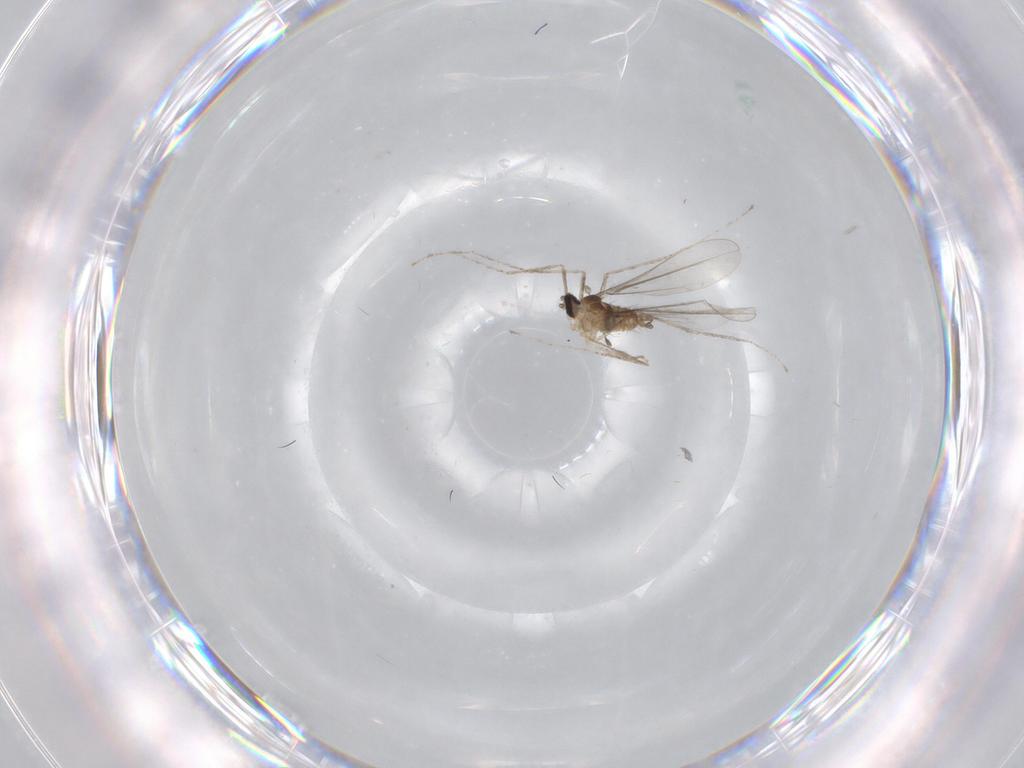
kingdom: Animalia
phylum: Arthropoda
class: Insecta
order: Diptera
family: Cecidomyiidae
